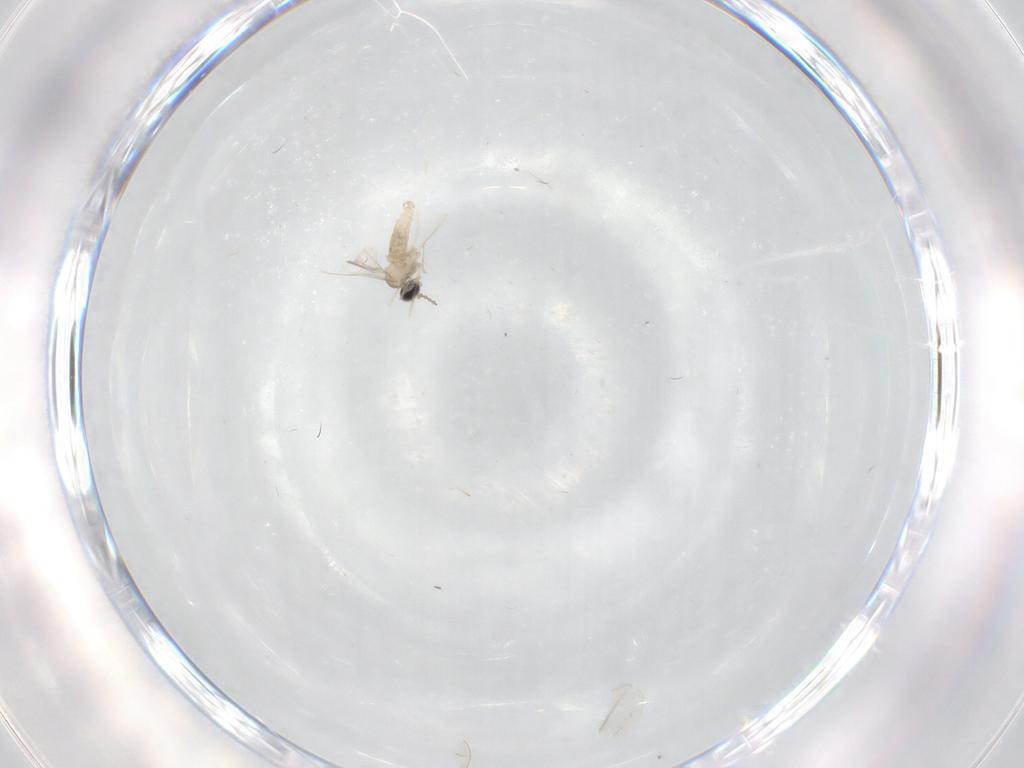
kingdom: Animalia
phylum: Arthropoda
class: Insecta
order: Diptera
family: Cecidomyiidae
